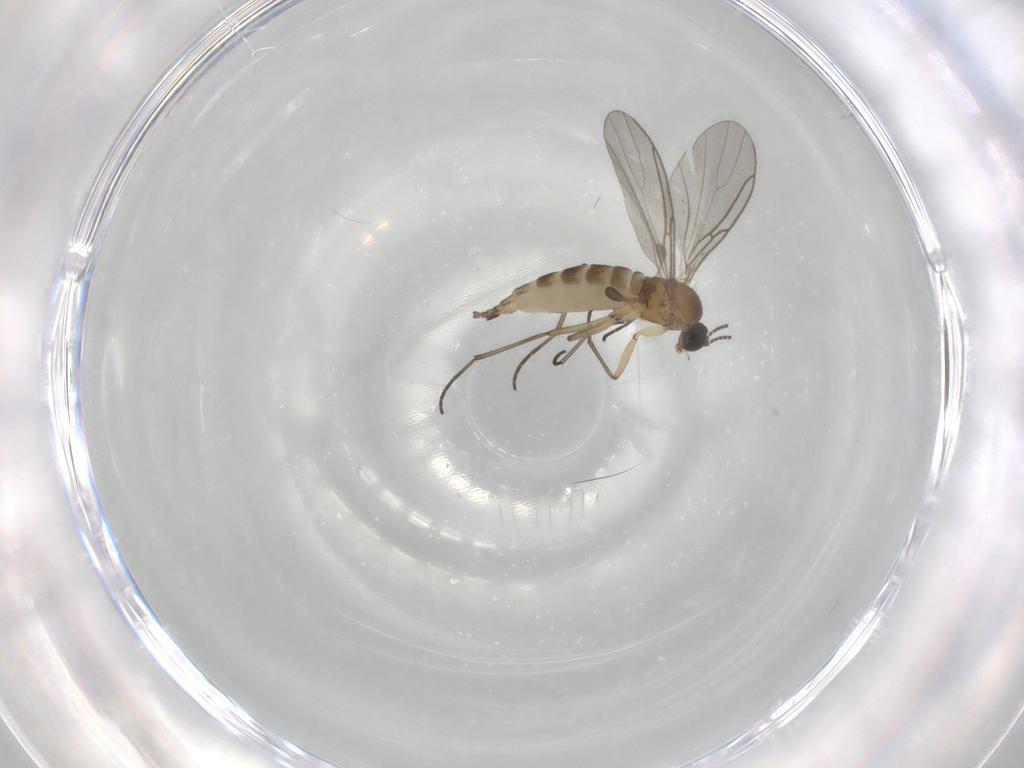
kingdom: Animalia
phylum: Arthropoda
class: Insecta
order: Diptera
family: Sciaridae
